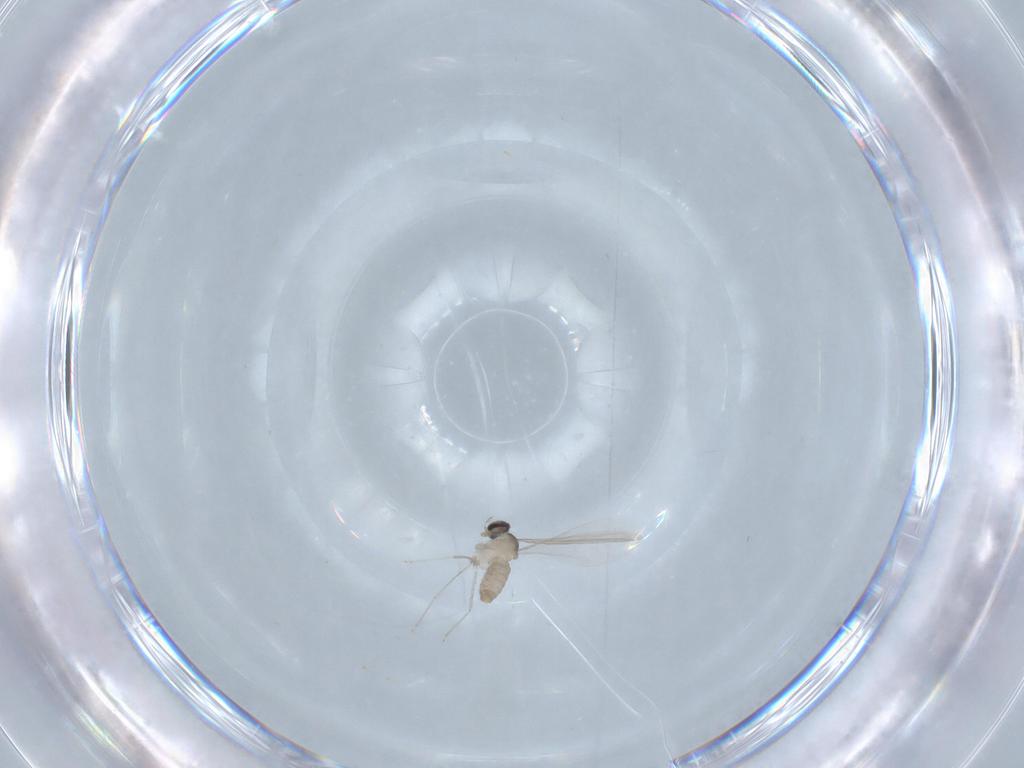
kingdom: Animalia
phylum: Arthropoda
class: Insecta
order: Diptera
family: Cecidomyiidae
